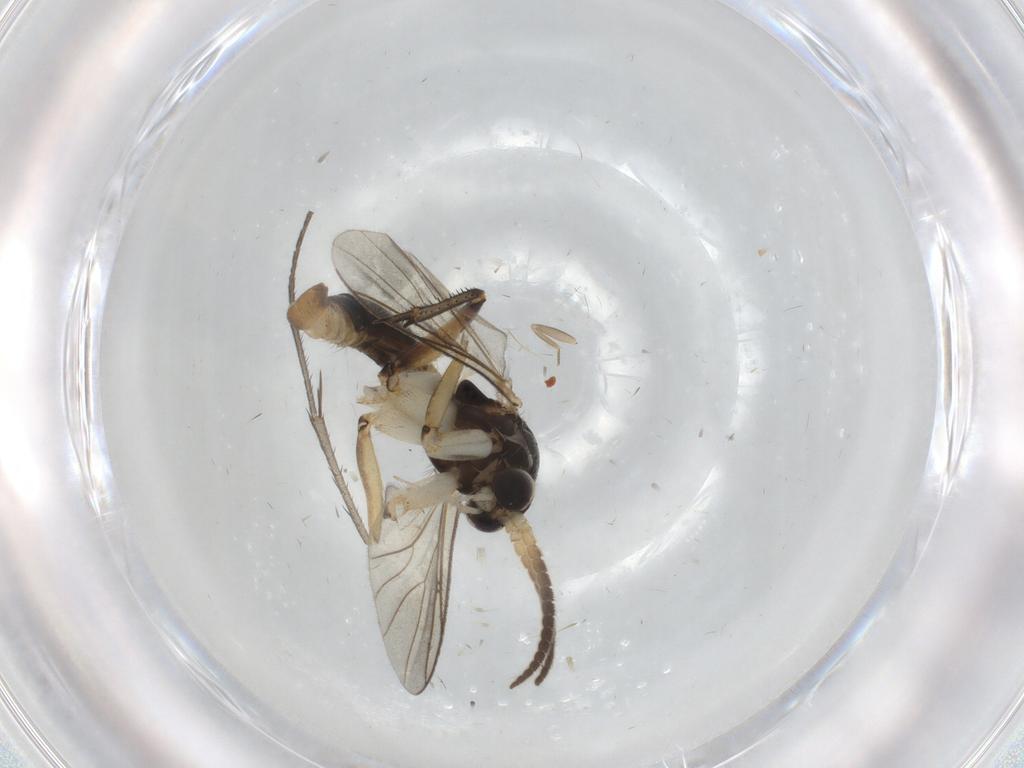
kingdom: Animalia
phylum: Arthropoda
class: Insecta
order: Diptera
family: Cecidomyiidae
